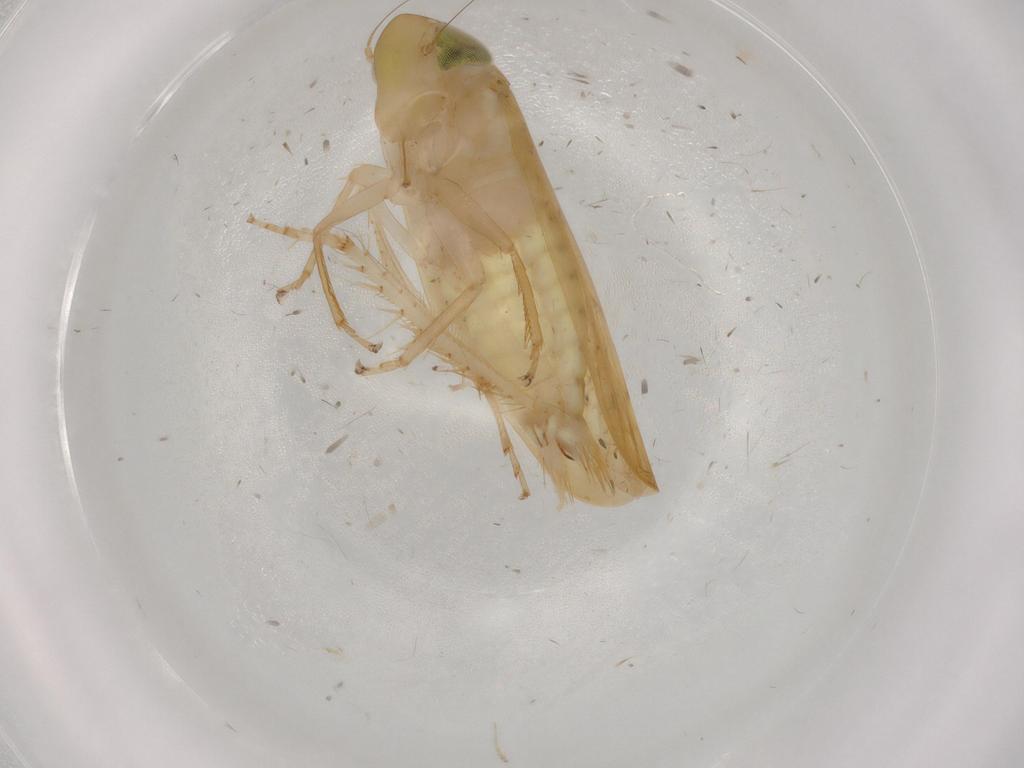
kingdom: Animalia
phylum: Arthropoda
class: Insecta
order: Hemiptera
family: Cicadellidae
